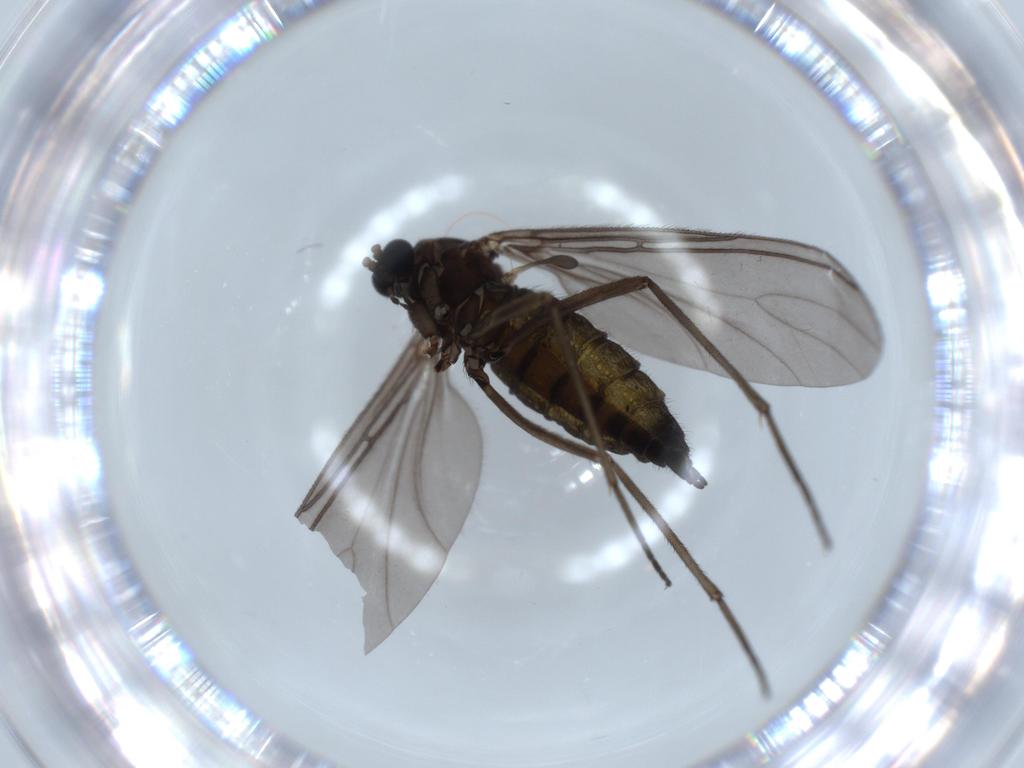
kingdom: Animalia
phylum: Arthropoda
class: Insecta
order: Diptera
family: Sciaridae
